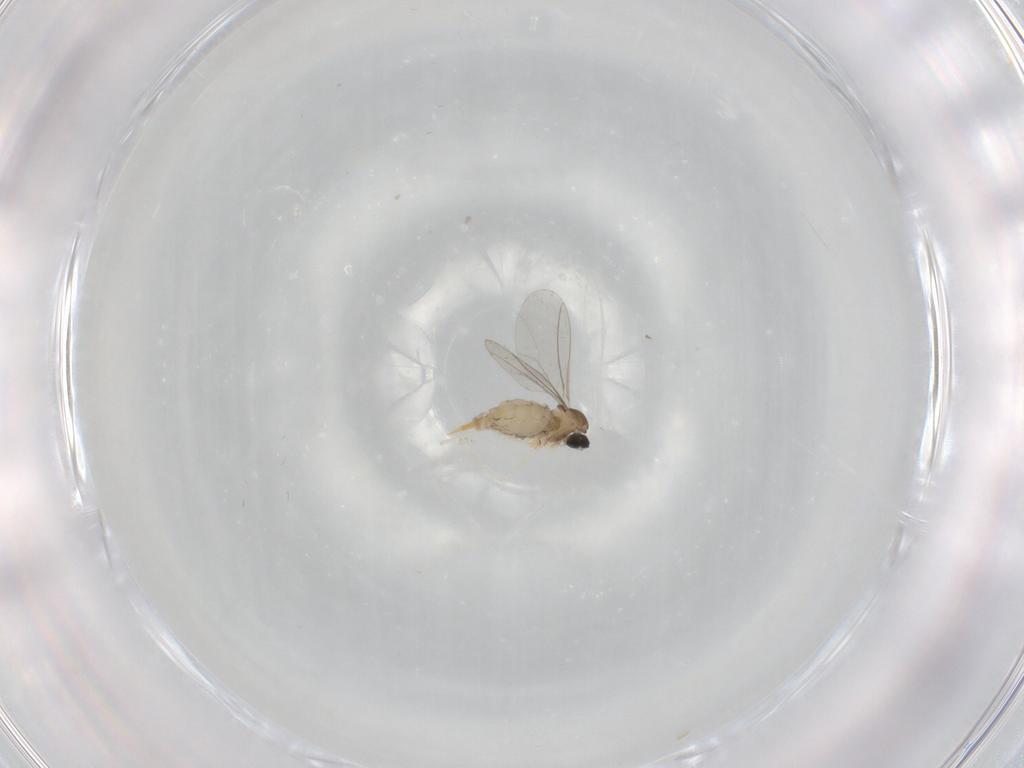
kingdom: Animalia
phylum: Arthropoda
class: Insecta
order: Diptera
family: Cecidomyiidae
